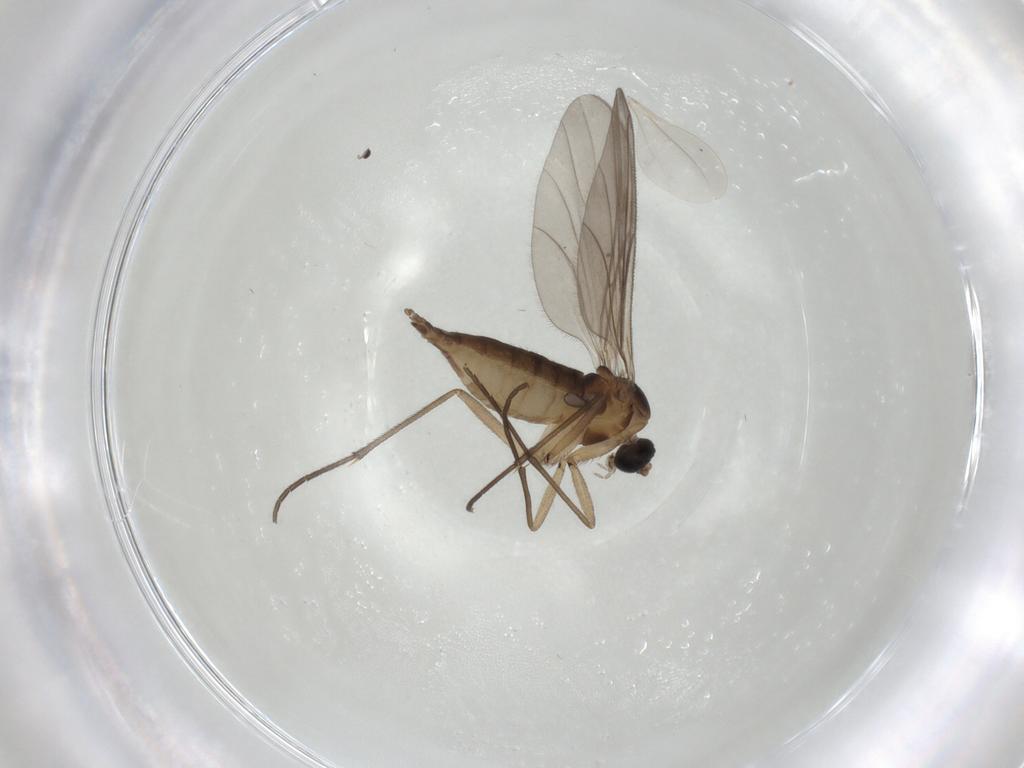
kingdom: Animalia
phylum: Arthropoda
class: Insecta
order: Diptera
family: Sciaridae
